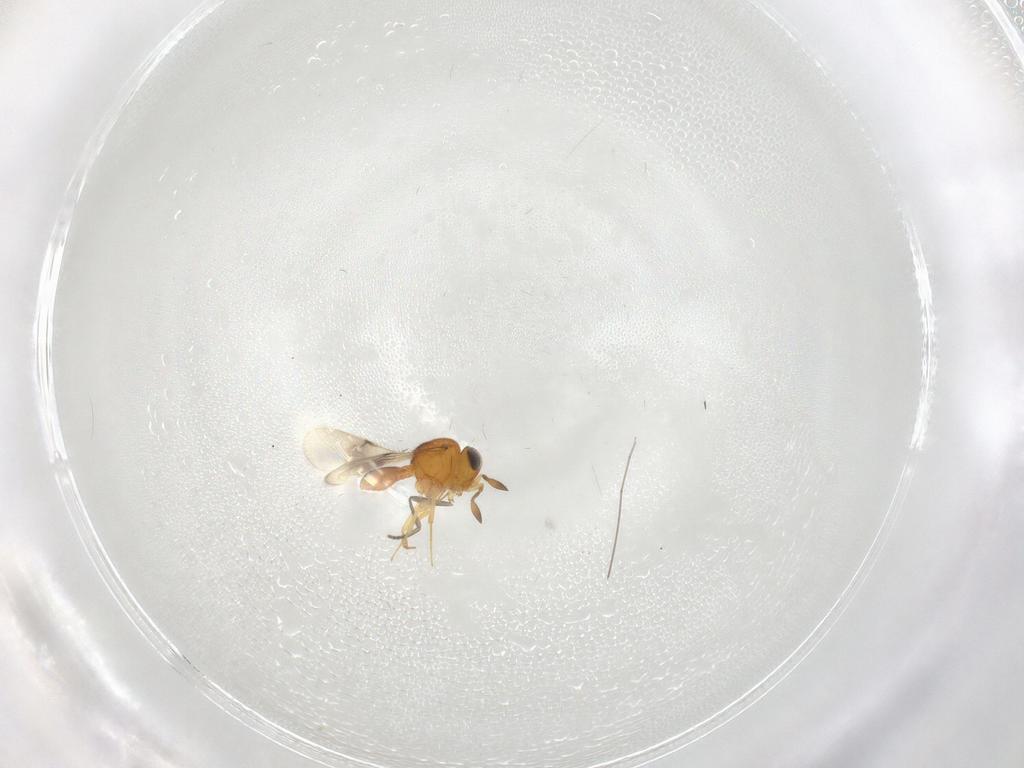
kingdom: Animalia
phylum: Arthropoda
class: Insecta
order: Hymenoptera
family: Scelionidae
